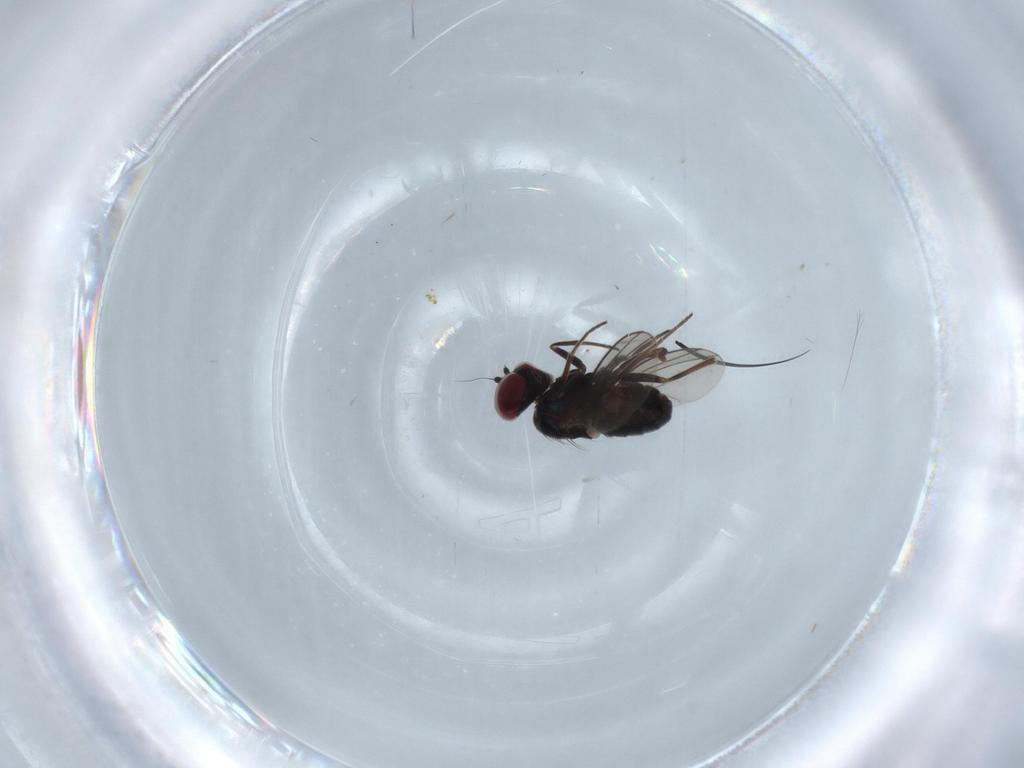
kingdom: Animalia
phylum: Arthropoda
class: Insecta
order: Diptera
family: Dolichopodidae
